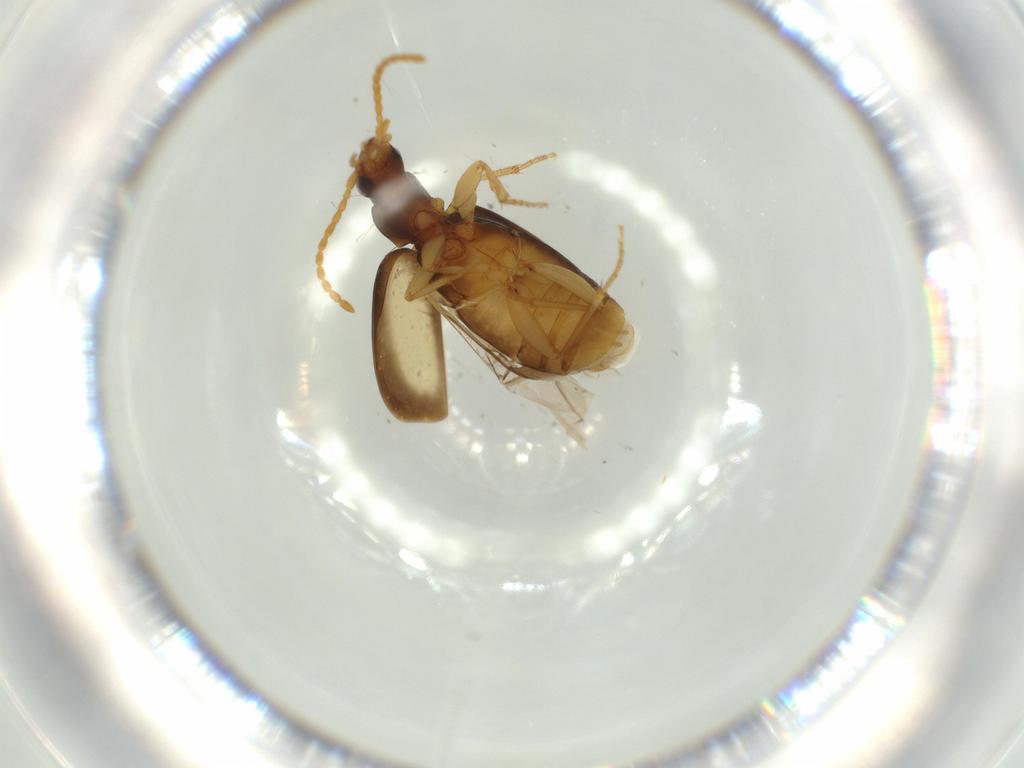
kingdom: Animalia
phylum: Arthropoda
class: Insecta
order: Coleoptera
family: Carabidae
